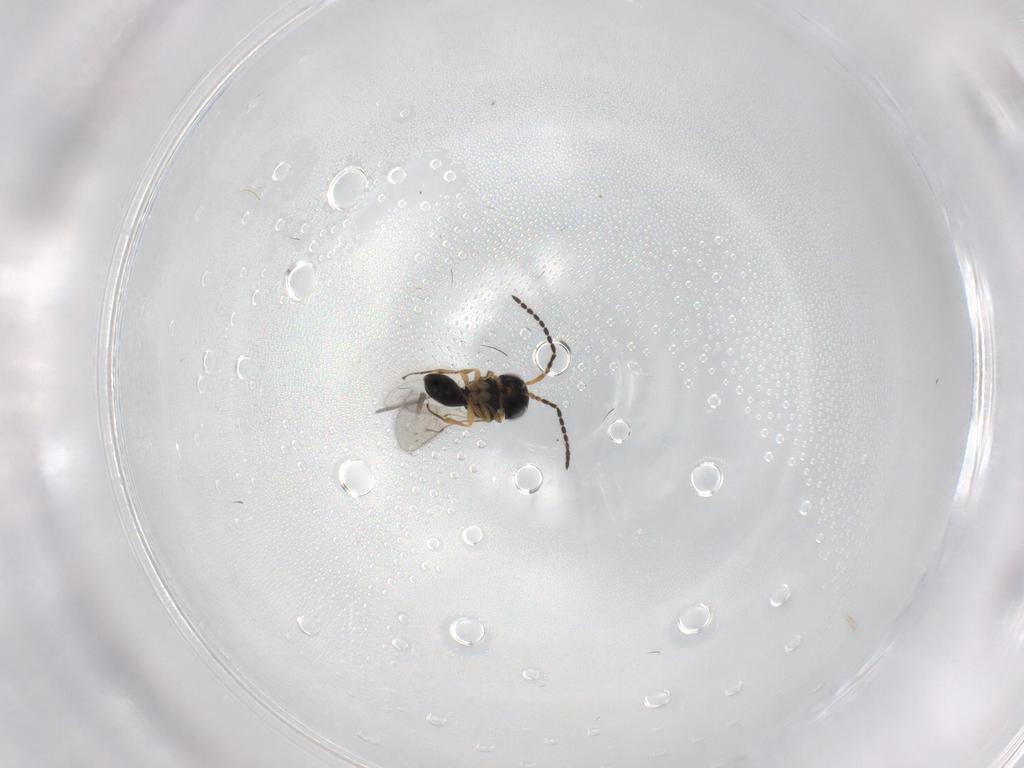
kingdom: Animalia
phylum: Arthropoda
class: Insecta
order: Hymenoptera
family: Scelionidae
